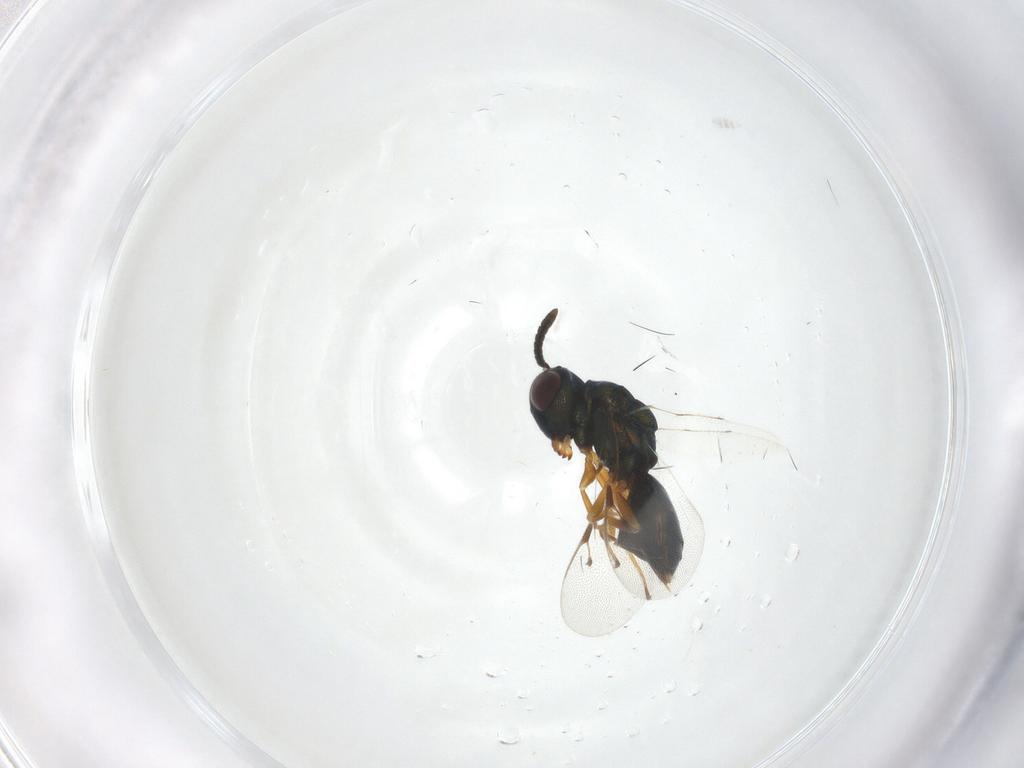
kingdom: Animalia
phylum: Arthropoda
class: Insecta
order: Hymenoptera
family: Pteromalidae
